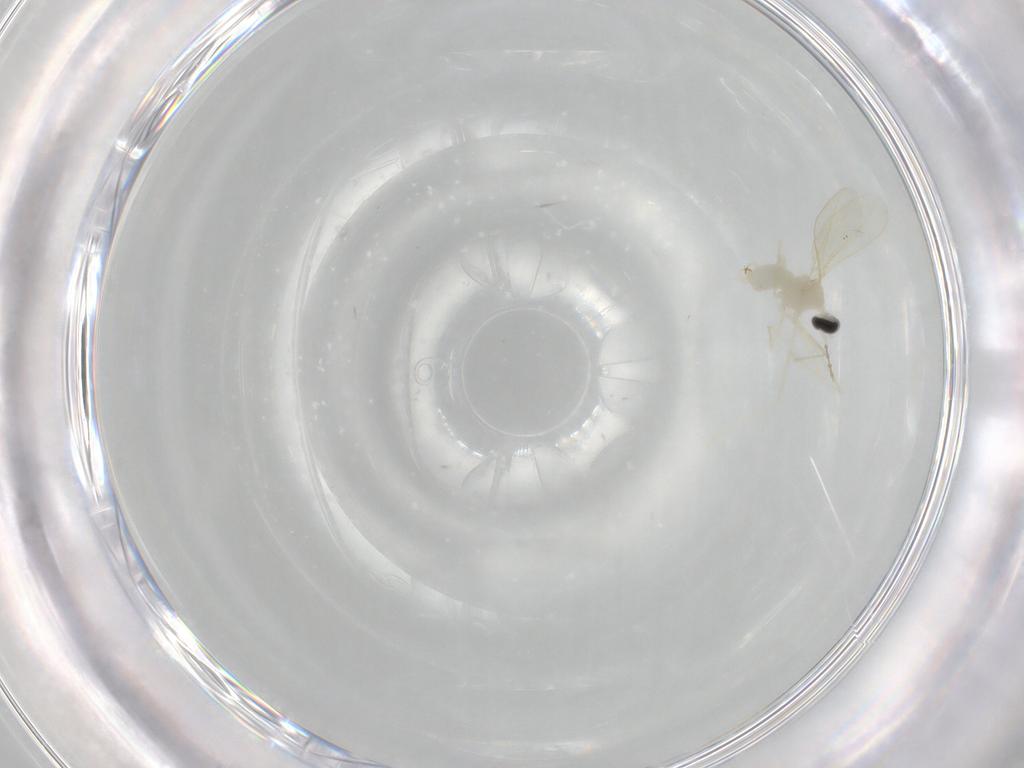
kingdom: Animalia
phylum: Arthropoda
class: Insecta
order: Diptera
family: Cecidomyiidae
